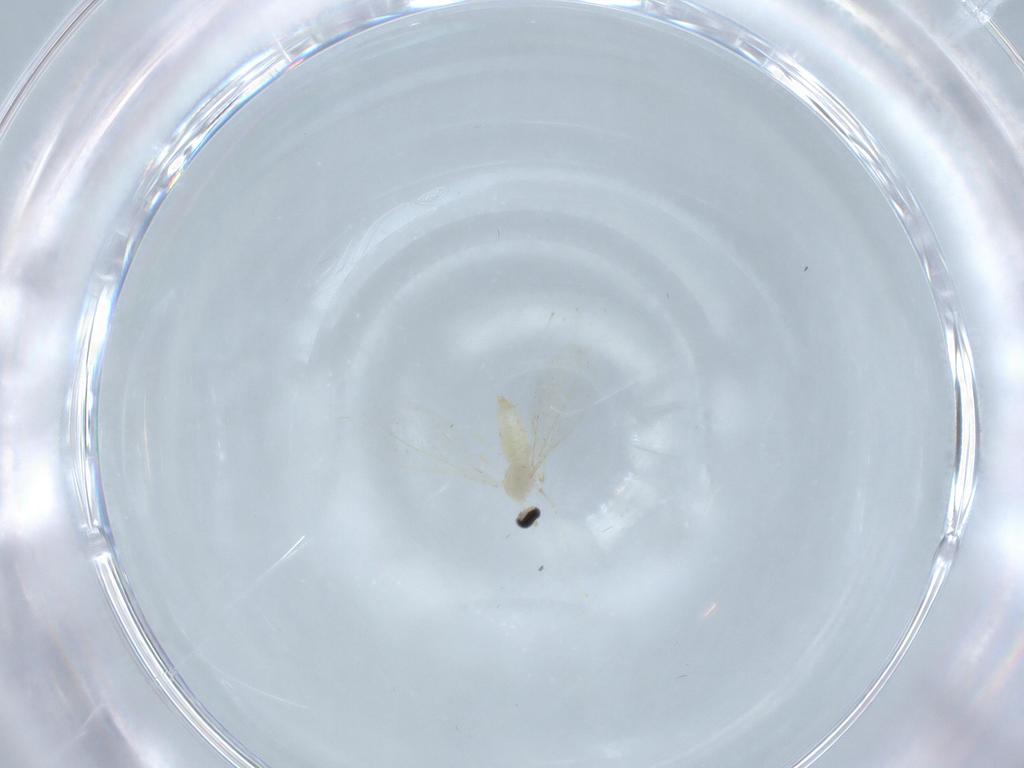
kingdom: Animalia
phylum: Arthropoda
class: Insecta
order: Diptera
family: Cecidomyiidae
